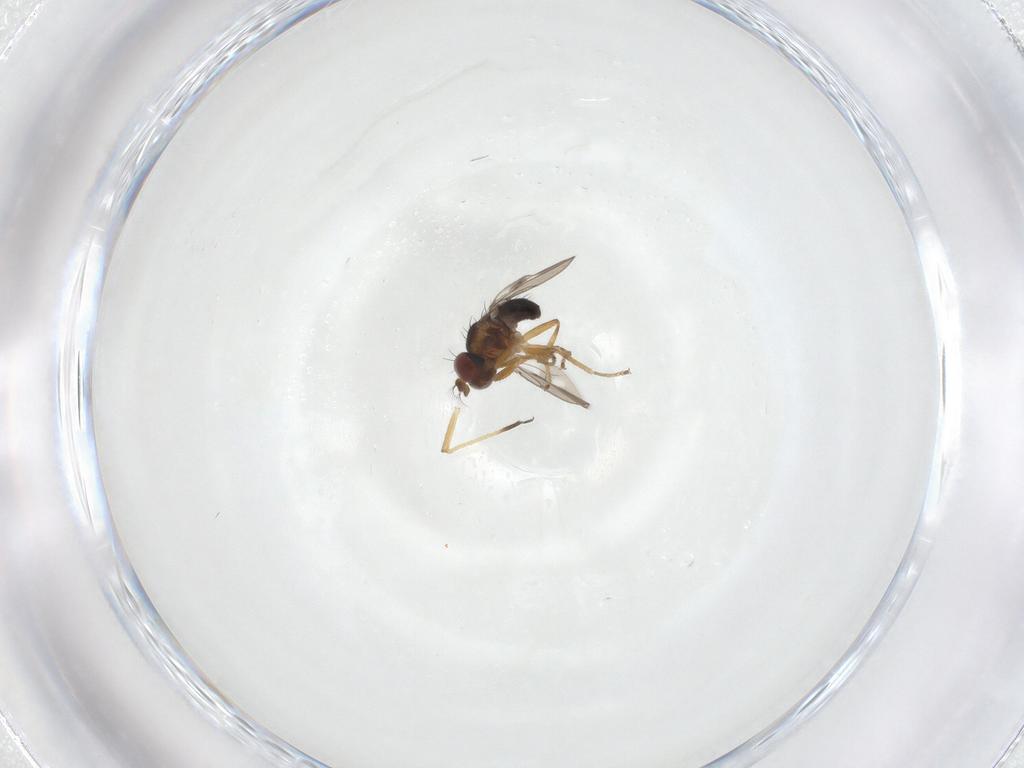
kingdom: Animalia
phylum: Arthropoda
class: Insecta
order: Diptera
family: Ephydridae
